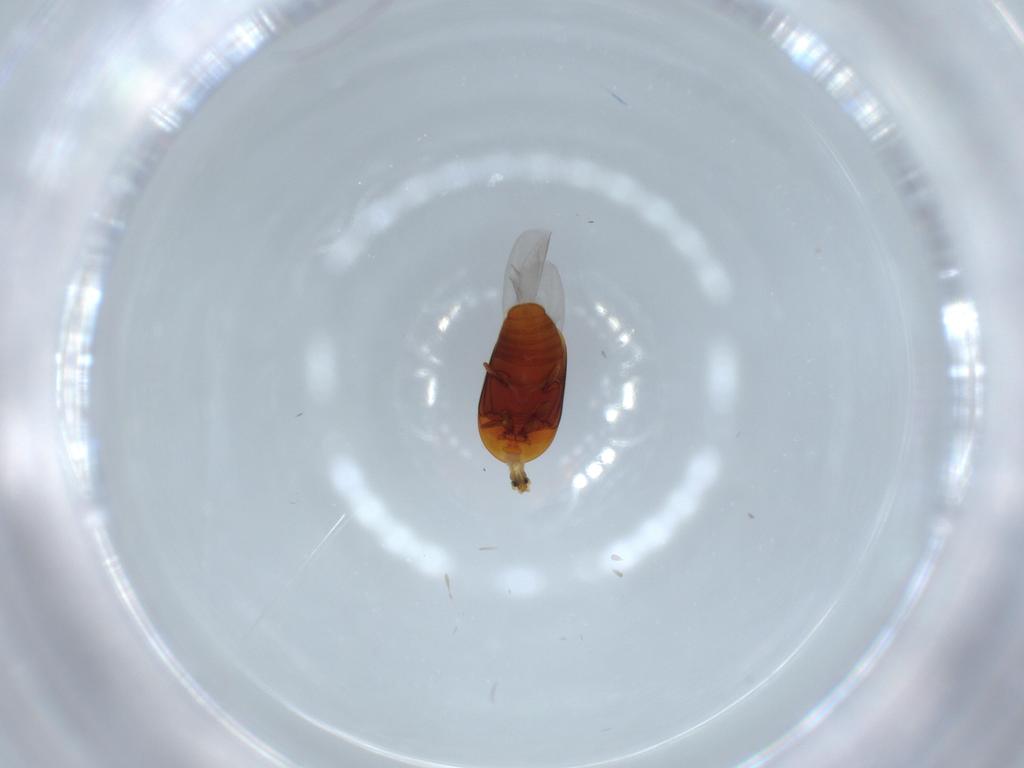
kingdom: Animalia
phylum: Arthropoda
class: Insecta
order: Coleoptera
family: Corylophidae
